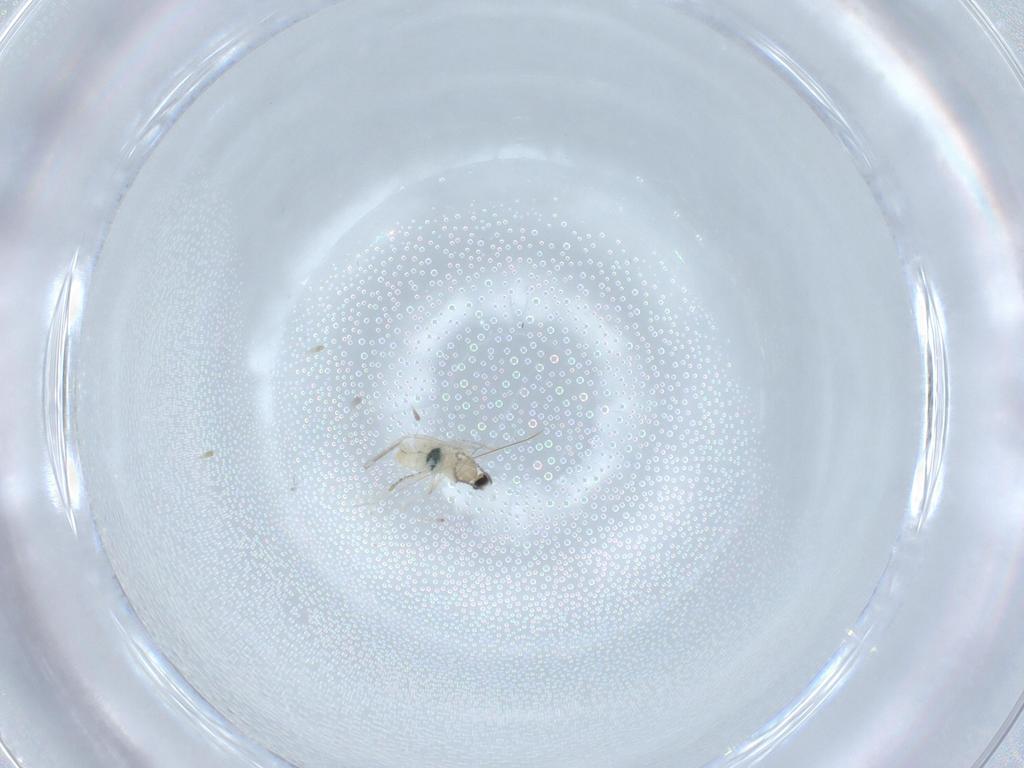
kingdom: Animalia
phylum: Arthropoda
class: Insecta
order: Diptera
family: Cecidomyiidae
